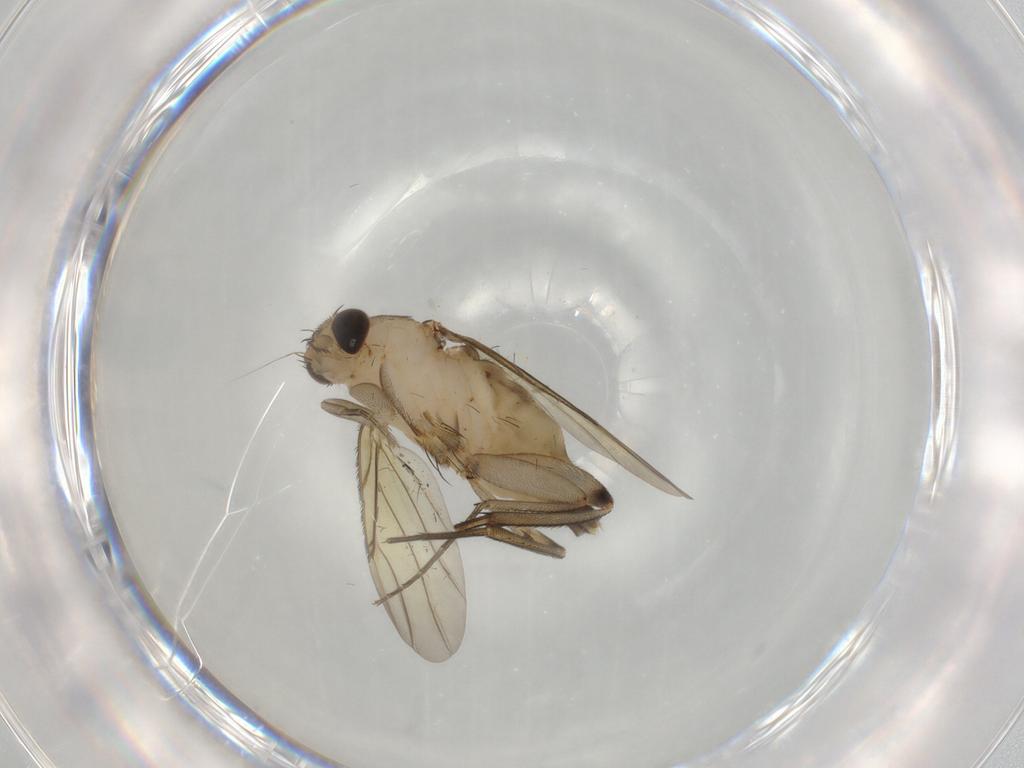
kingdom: Animalia
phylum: Arthropoda
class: Insecta
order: Diptera
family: Phoridae
